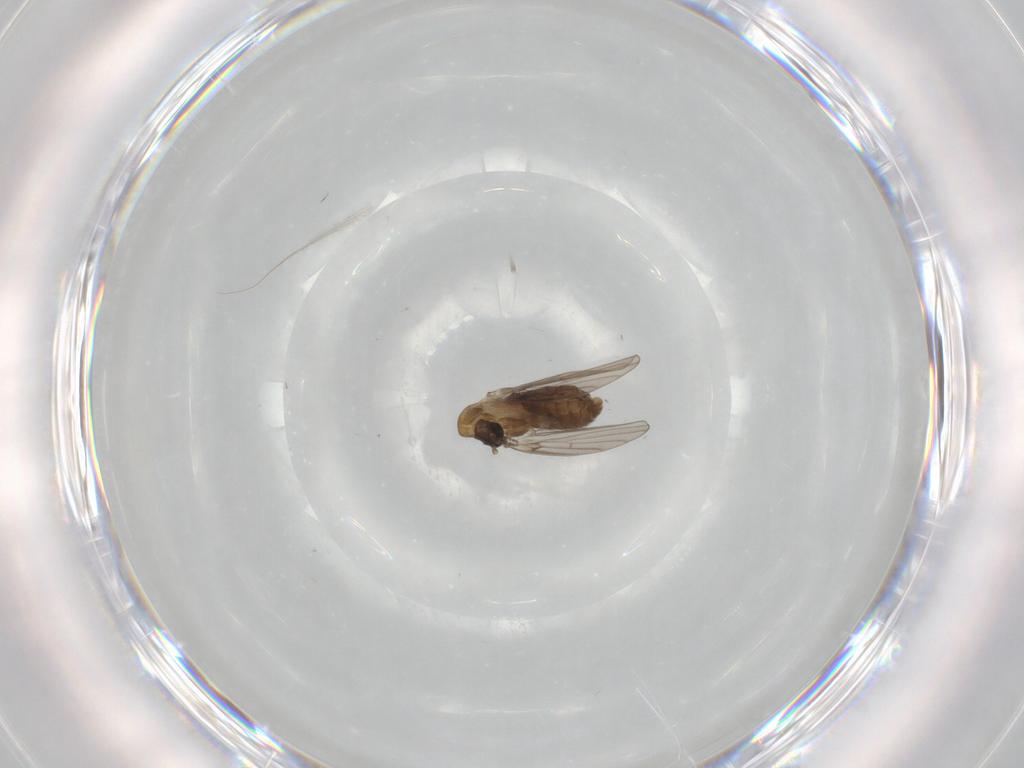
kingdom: Animalia
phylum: Arthropoda
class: Insecta
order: Diptera
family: Psychodidae
